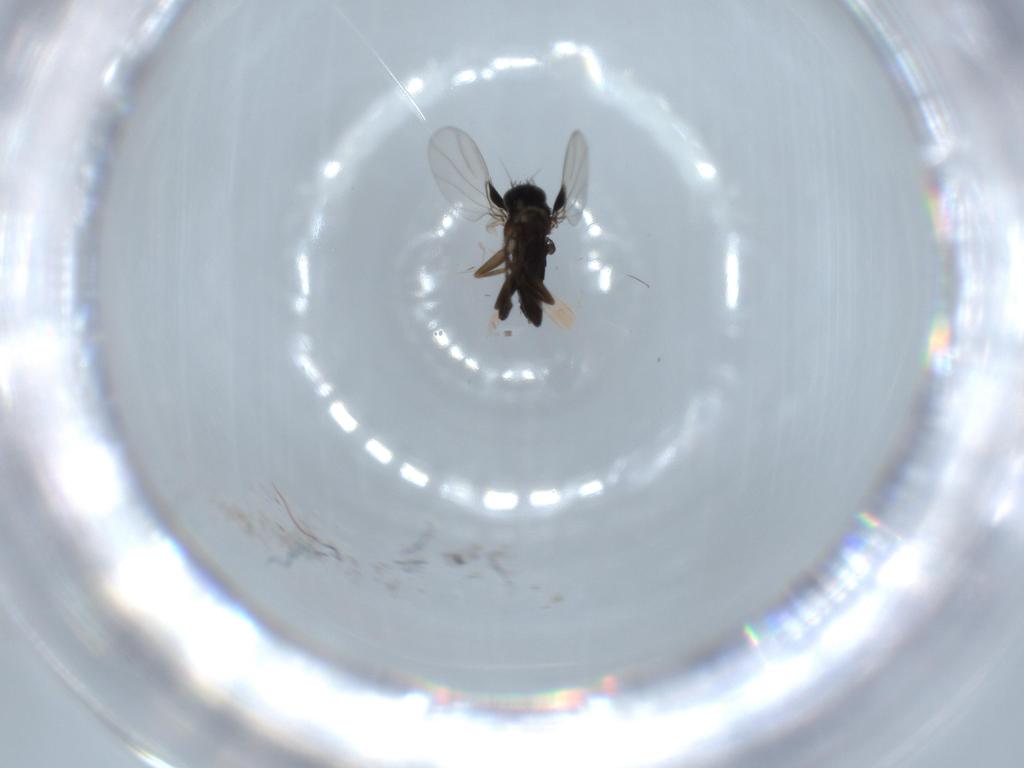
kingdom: Animalia
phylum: Arthropoda
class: Insecta
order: Diptera
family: Phoridae
